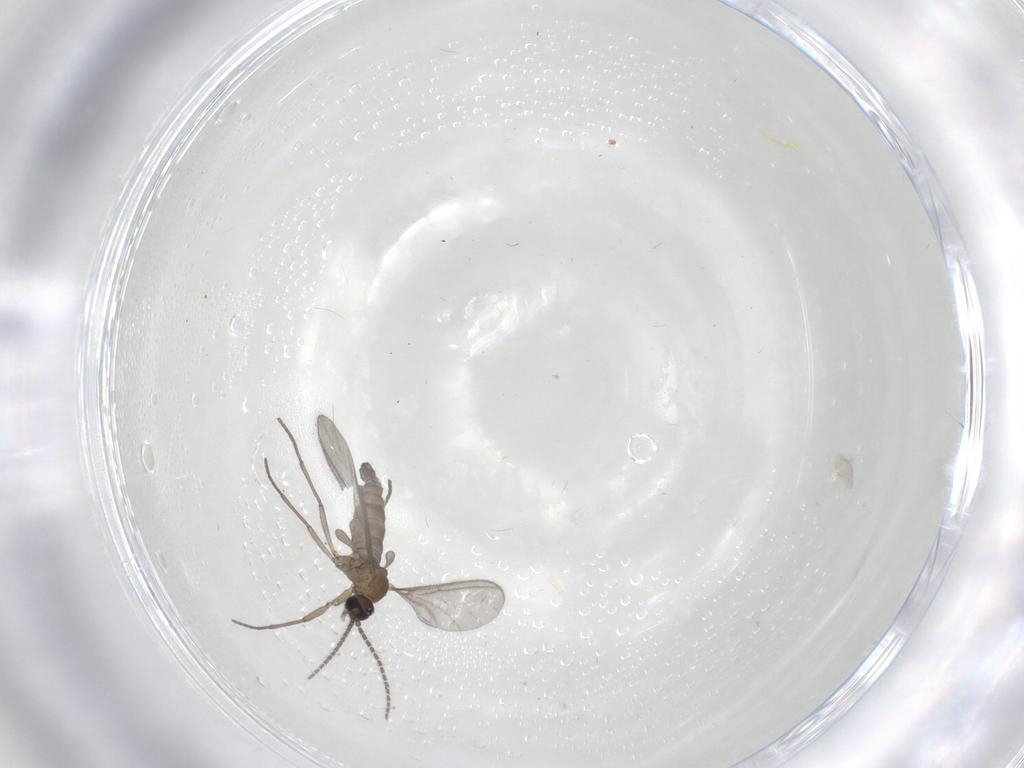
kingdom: Animalia
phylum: Arthropoda
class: Insecta
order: Diptera
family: Sciaridae
